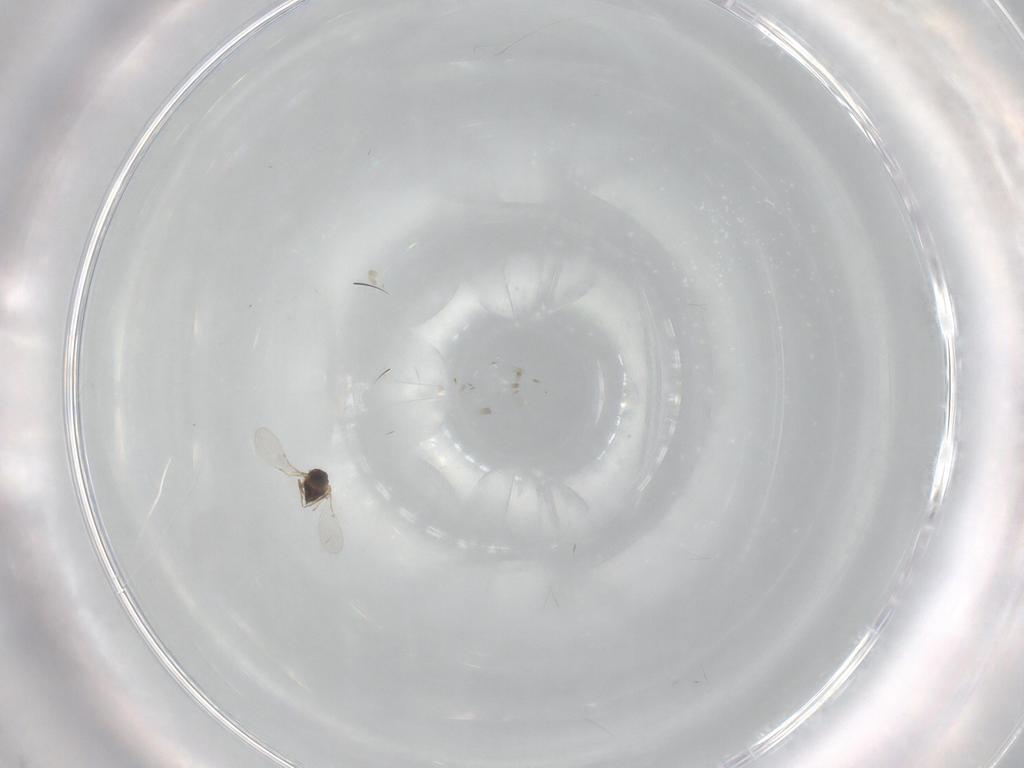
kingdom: Animalia
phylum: Arthropoda
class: Insecta
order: Hymenoptera
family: Encyrtidae
